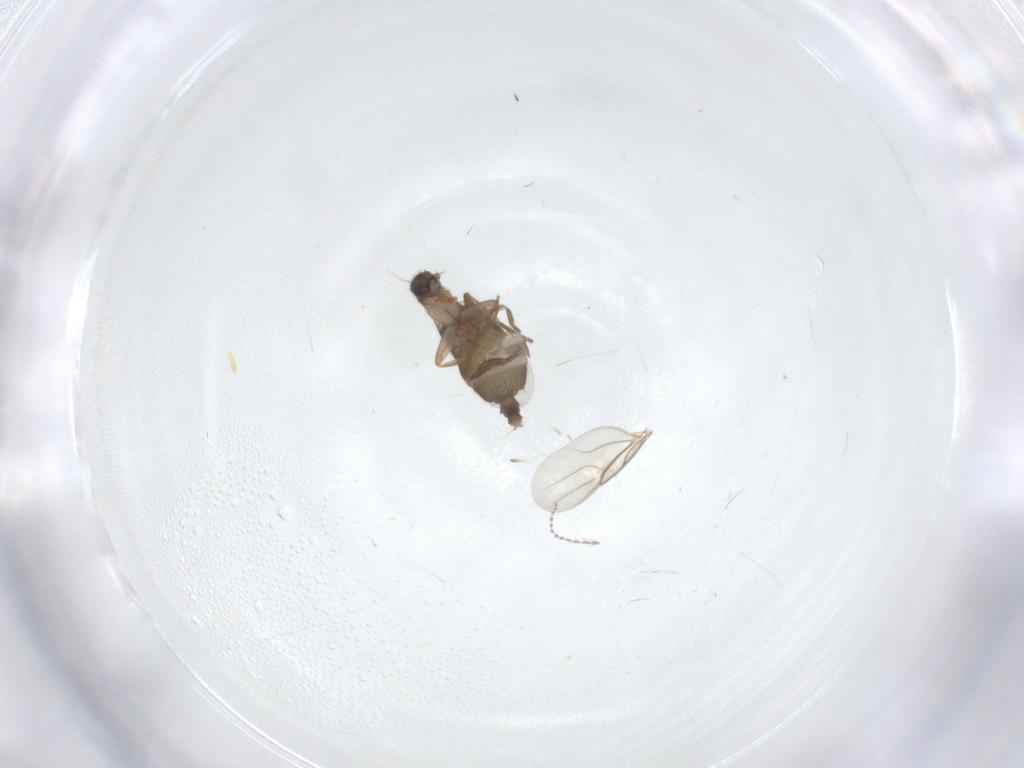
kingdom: Animalia
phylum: Arthropoda
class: Insecta
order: Diptera
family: Phoridae
